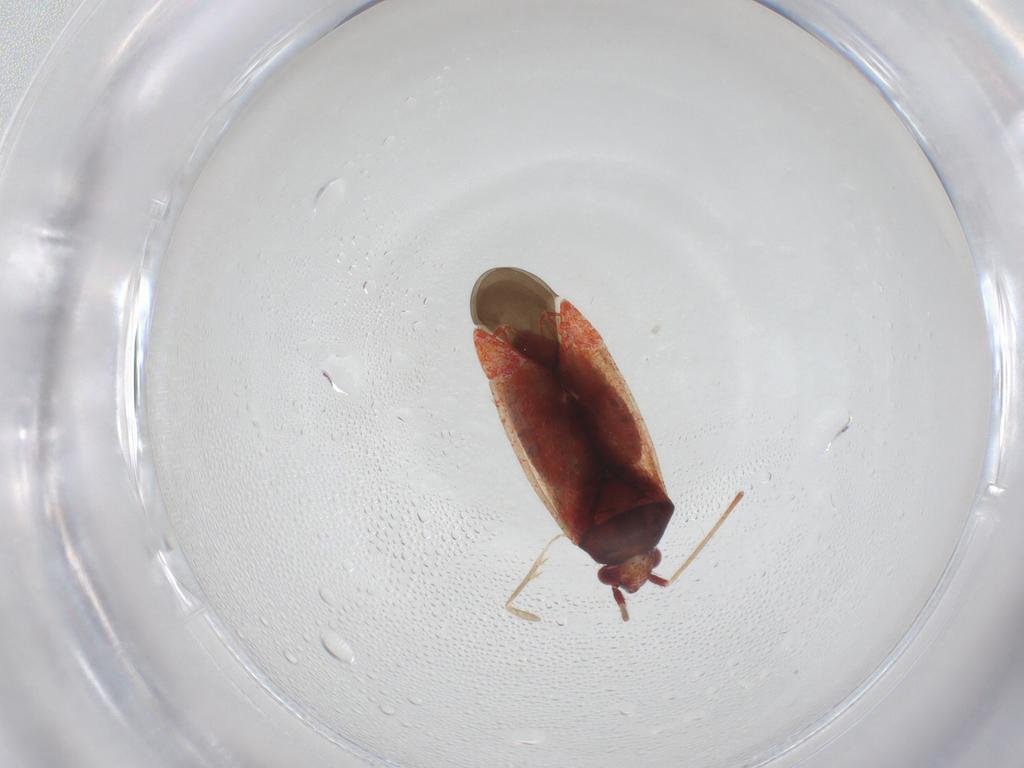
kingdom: Animalia
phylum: Arthropoda
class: Insecta
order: Hemiptera
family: Miridae
